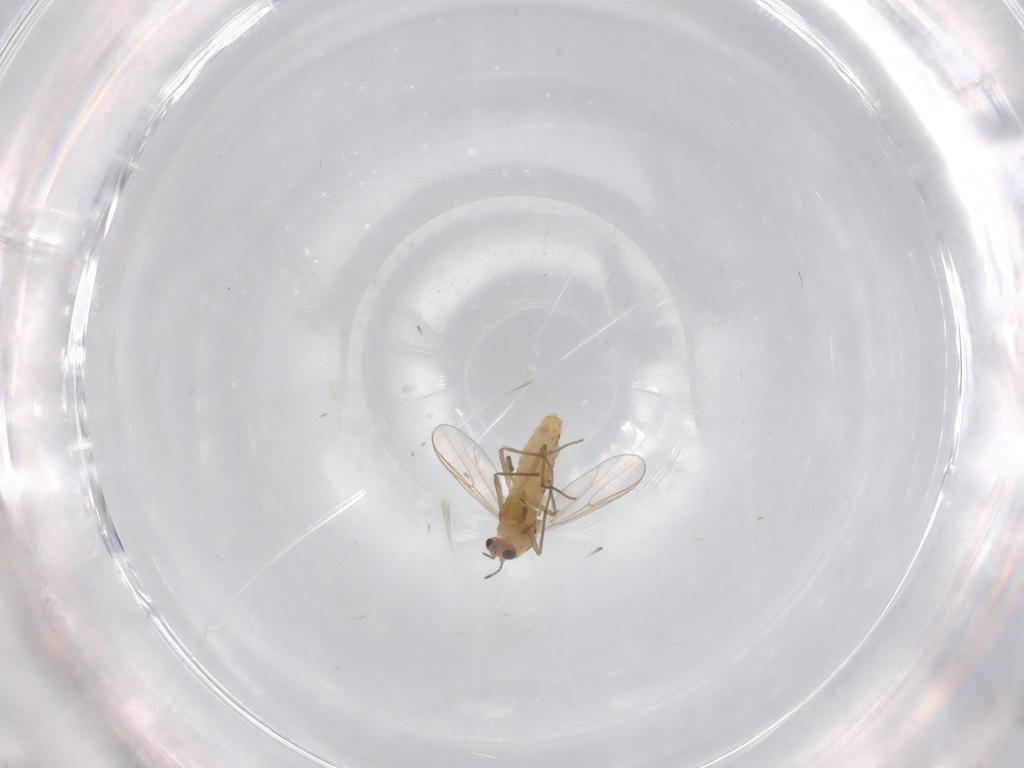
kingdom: Animalia
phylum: Arthropoda
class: Insecta
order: Diptera
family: Chironomidae
